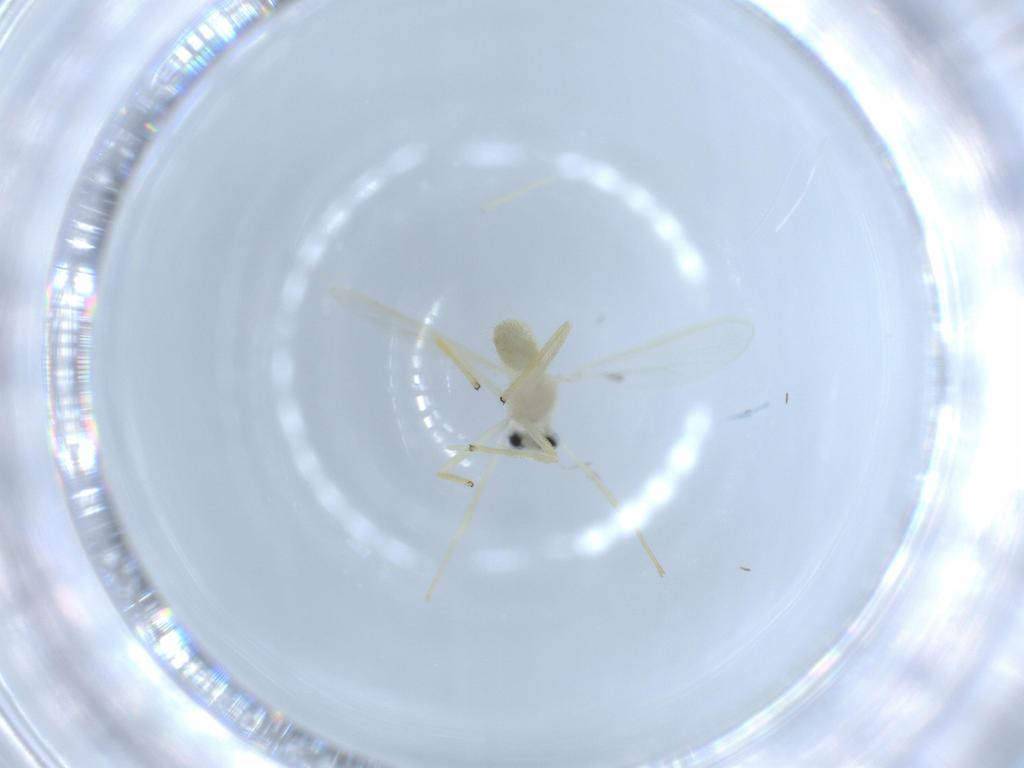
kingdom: Animalia
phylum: Arthropoda
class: Insecta
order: Diptera
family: Chironomidae
